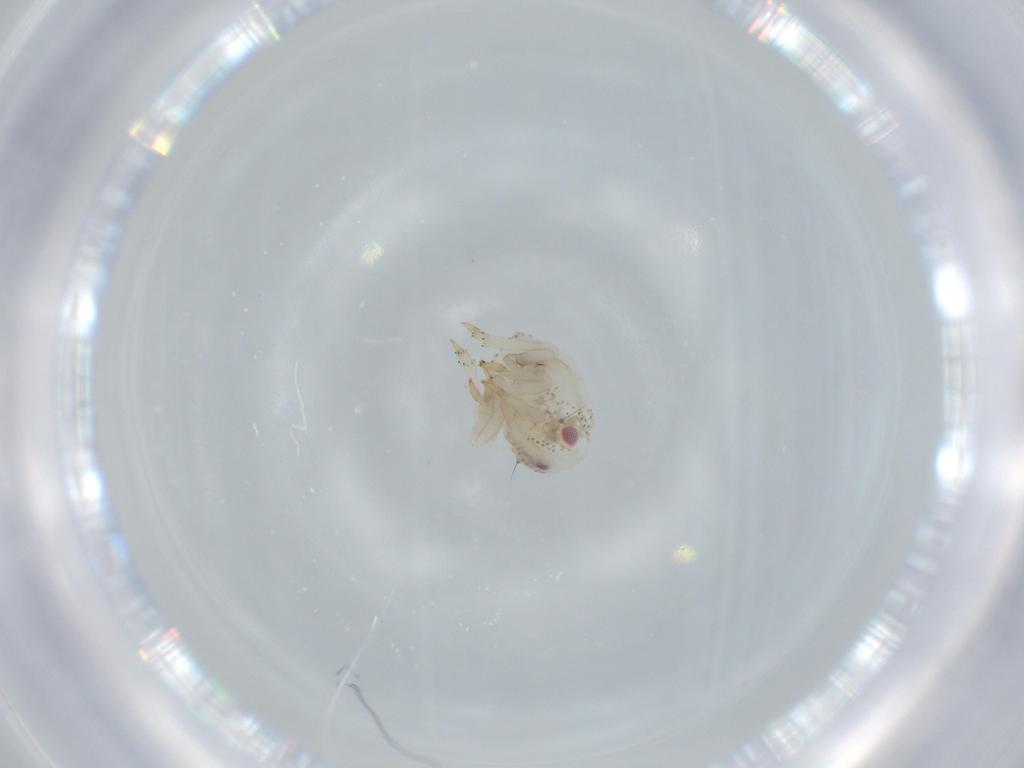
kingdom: Animalia
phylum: Arthropoda
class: Insecta
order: Hemiptera
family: Acanaloniidae
